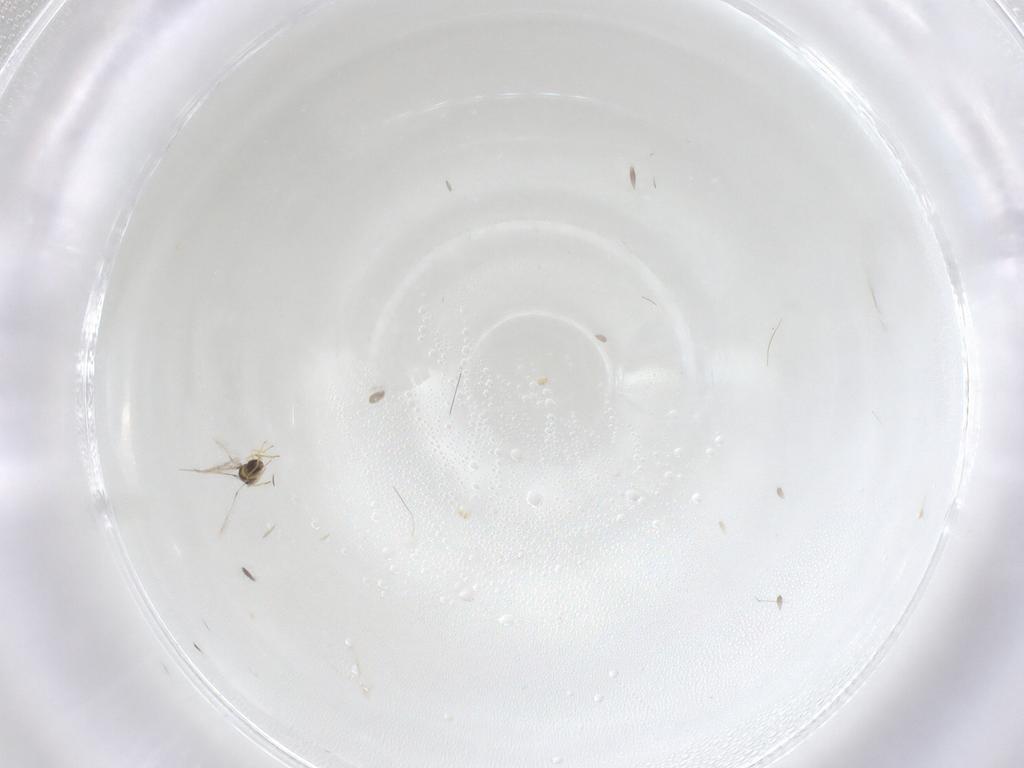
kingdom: Animalia
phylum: Arthropoda
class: Insecta
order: Hymenoptera
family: Mymaridae
